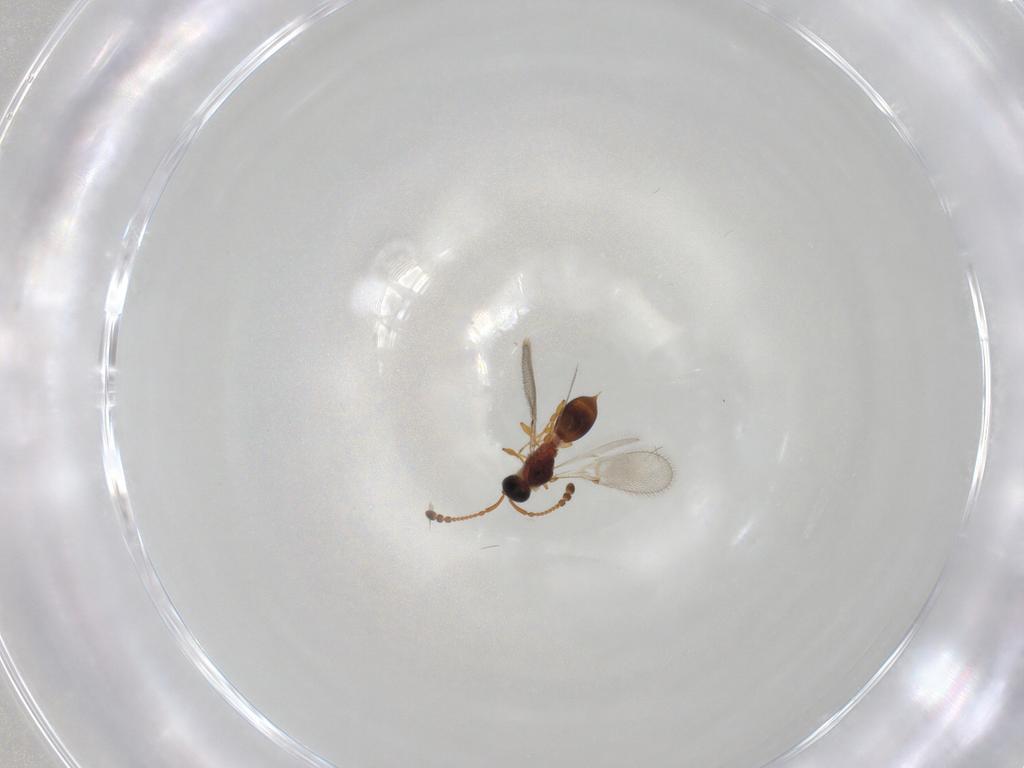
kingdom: Animalia
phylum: Arthropoda
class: Insecta
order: Hymenoptera
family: Diapriidae
